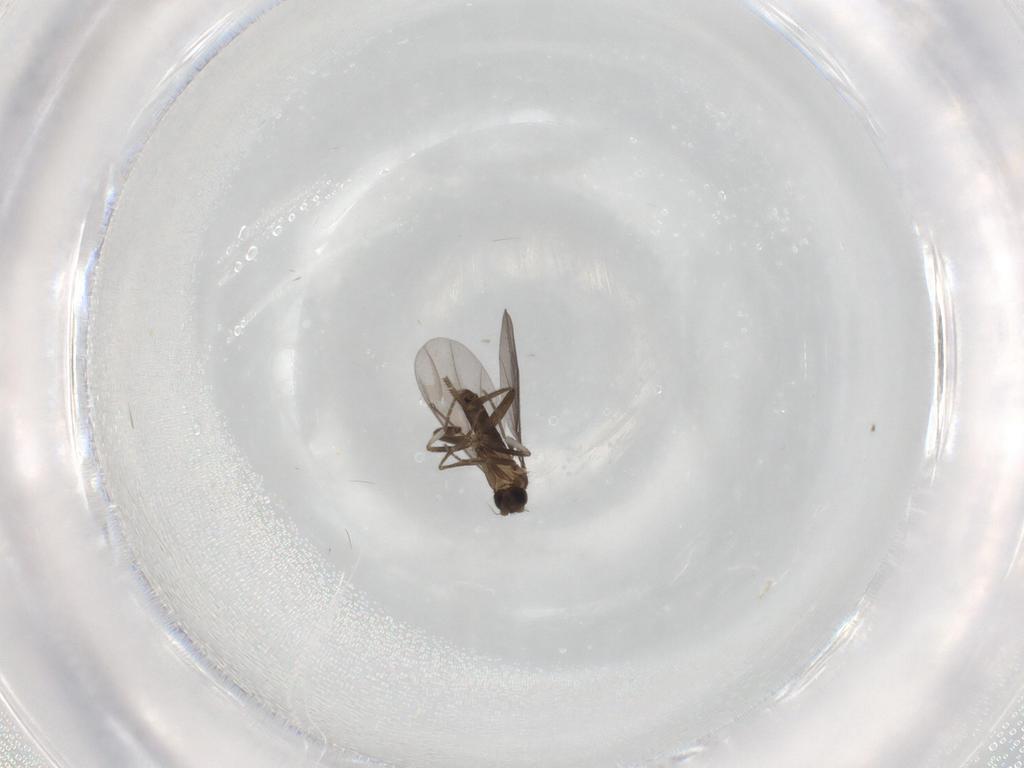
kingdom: Animalia
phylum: Arthropoda
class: Insecta
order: Diptera
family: Phoridae
